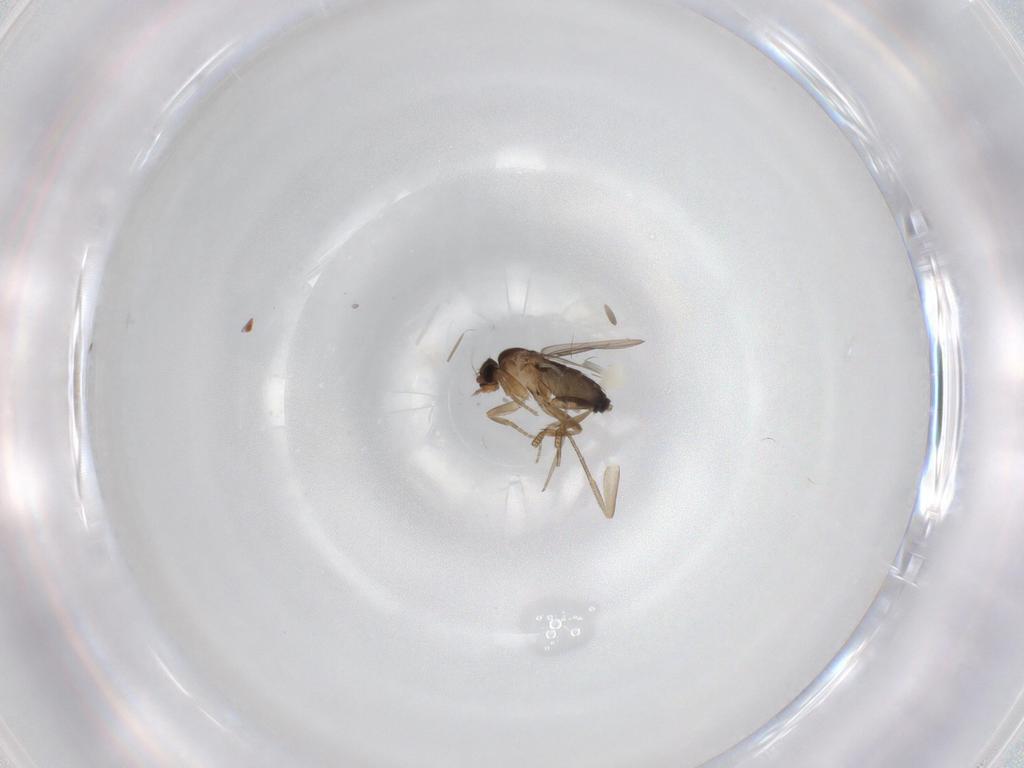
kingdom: Animalia
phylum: Arthropoda
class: Insecta
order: Diptera
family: Phoridae
